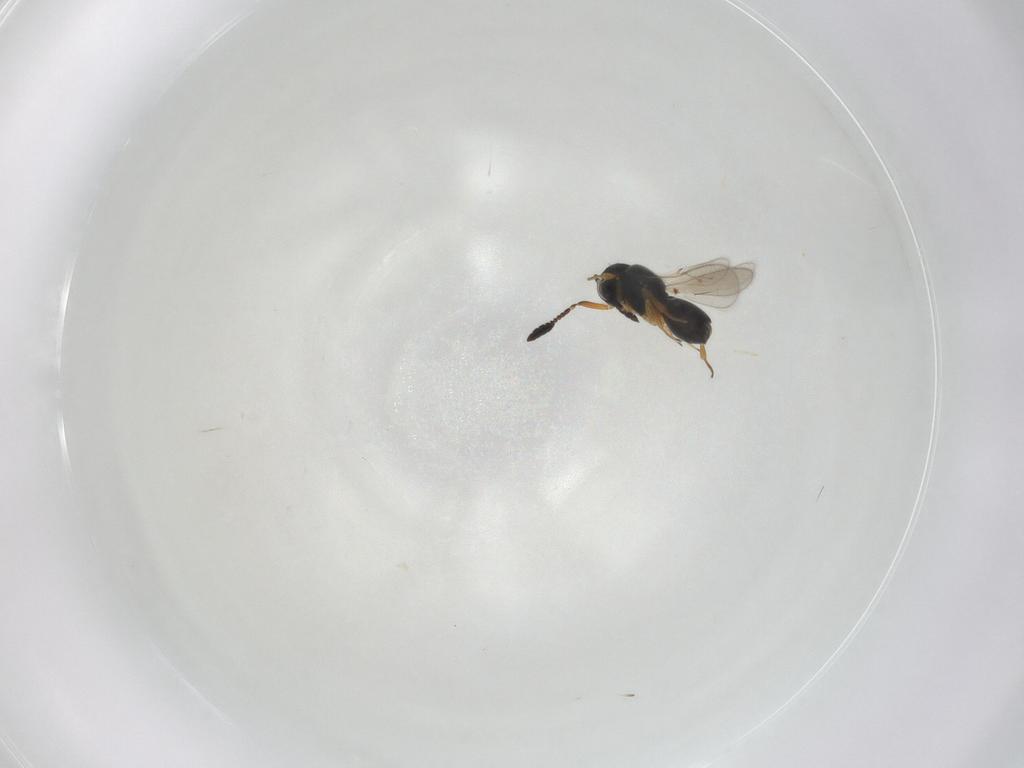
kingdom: Animalia
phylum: Arthropoda
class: Insecta
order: Hymenoptera
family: Scelionidae
